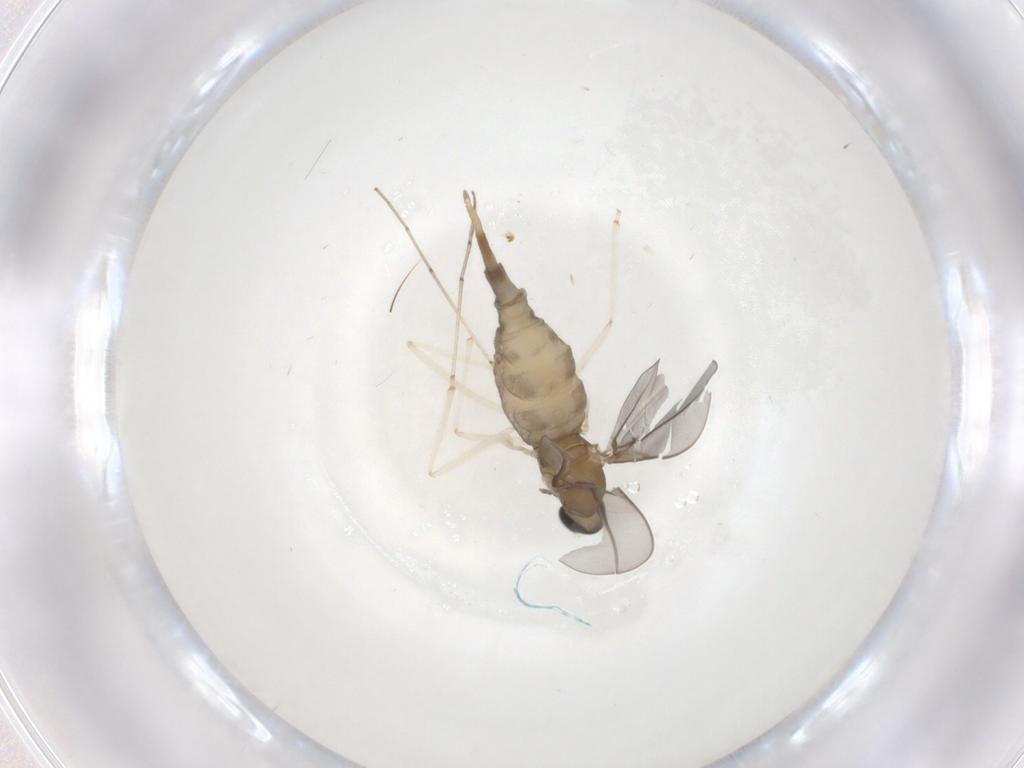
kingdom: Animalia
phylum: Arthropoda
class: Insecta
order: Diptera
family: Cecidomyiidae
